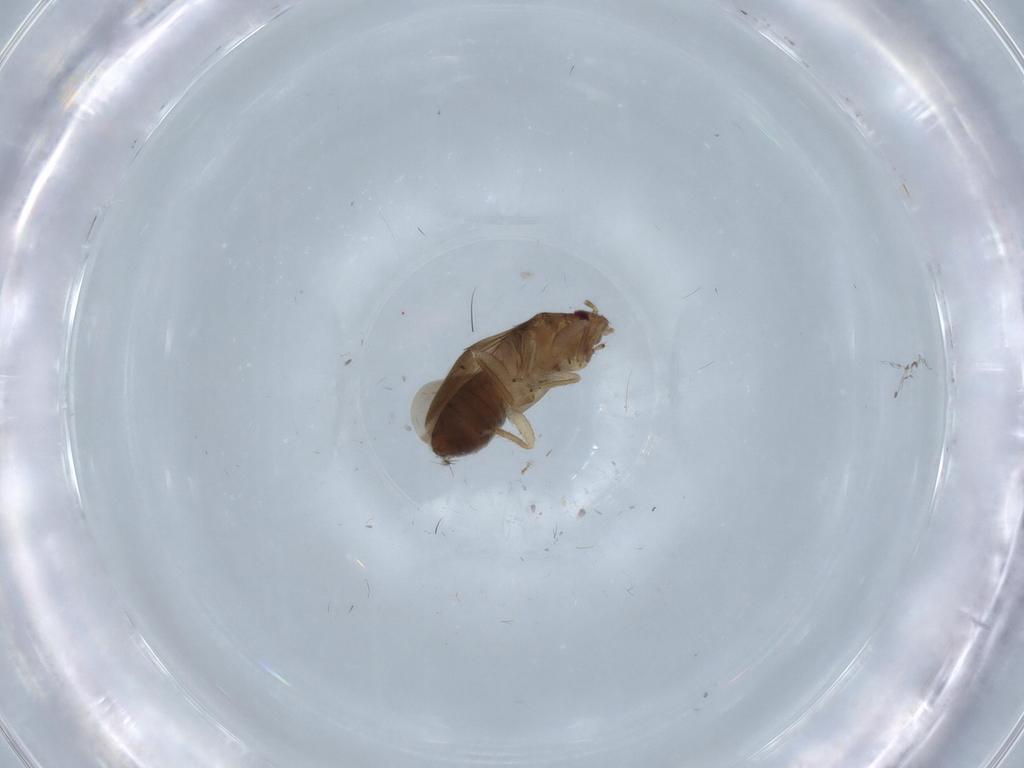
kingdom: Animalia
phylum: Arthropoda
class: Insecta
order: Hemiptera
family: Dipsocoridae
